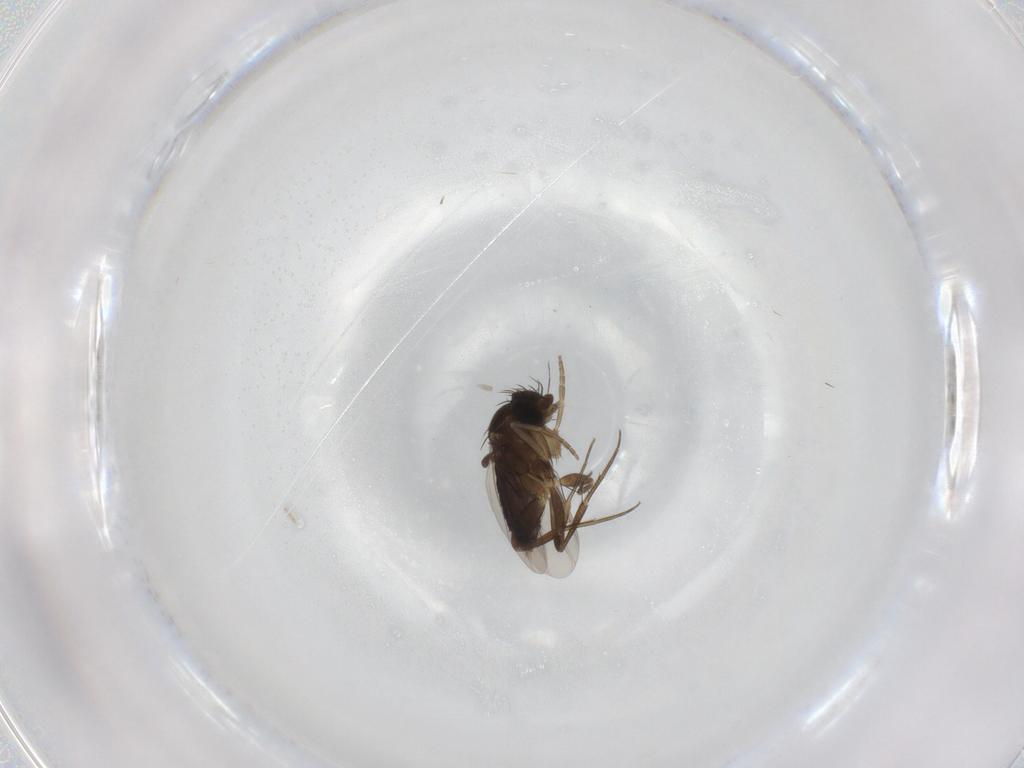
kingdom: Animalia
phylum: Arthropoda
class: Insecta
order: Diptera
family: Phoridae
